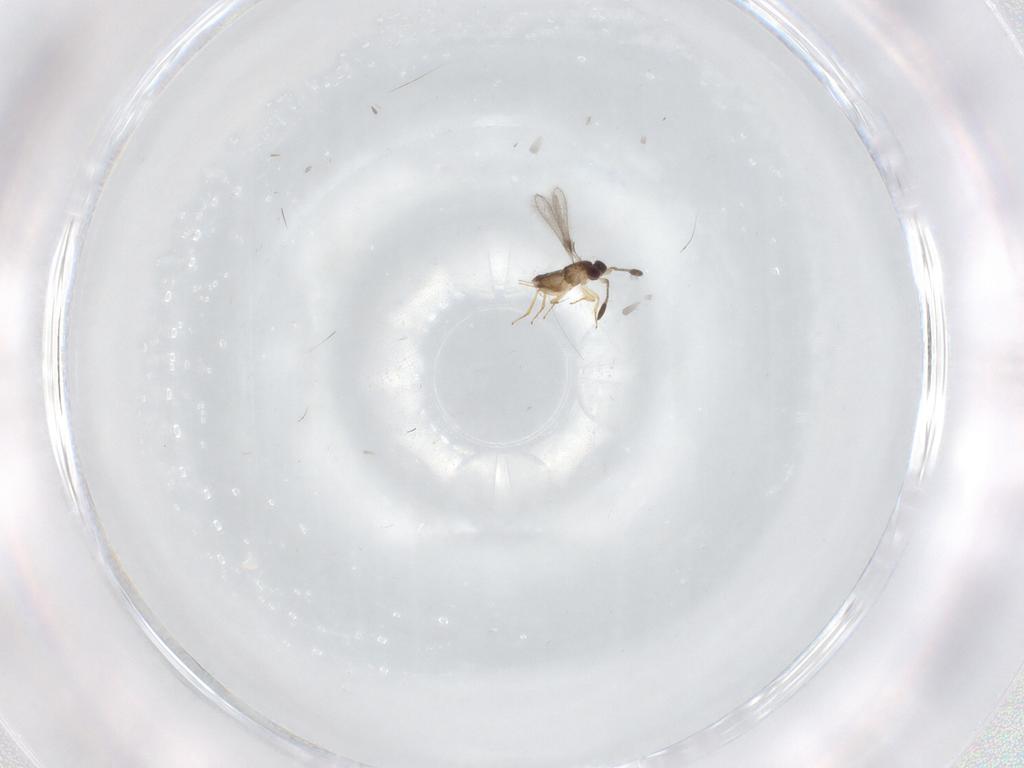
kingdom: Animalia
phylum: Arthropoda
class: Insecta
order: Hymenoptera
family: Mymaridae
